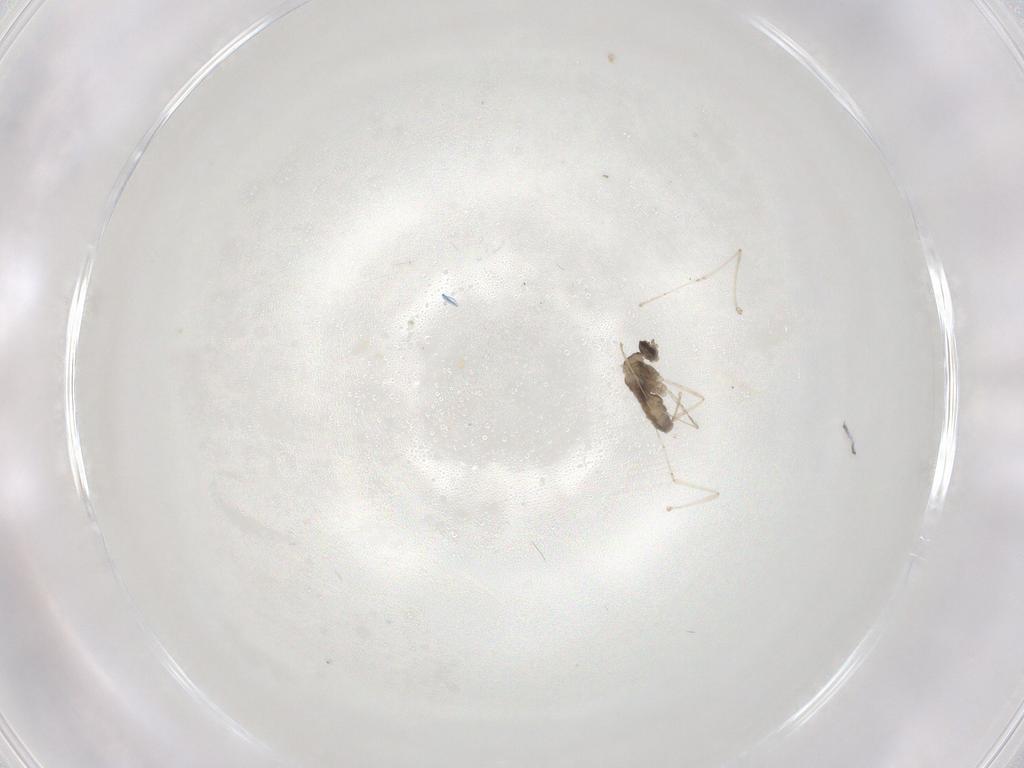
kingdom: Animalia
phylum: Arthropoda
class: Insecta
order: Diptera
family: Cecidomyiidae
